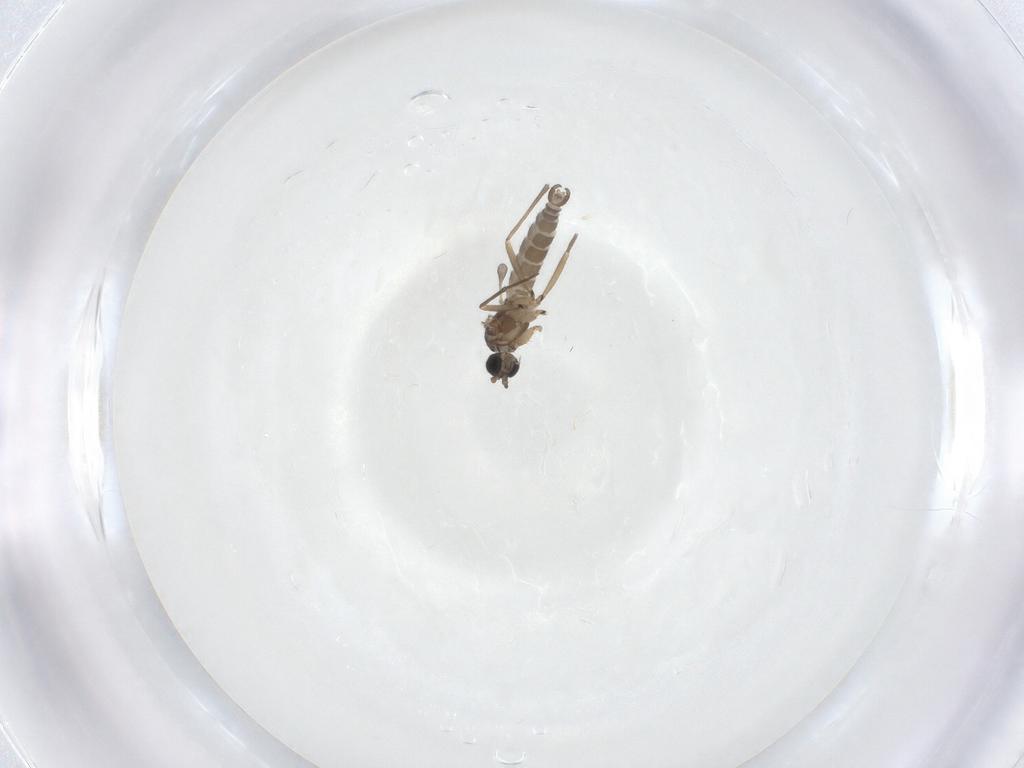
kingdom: Animalia
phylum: Arthropoda
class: Insecta
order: Diptera
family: Sciaridae
